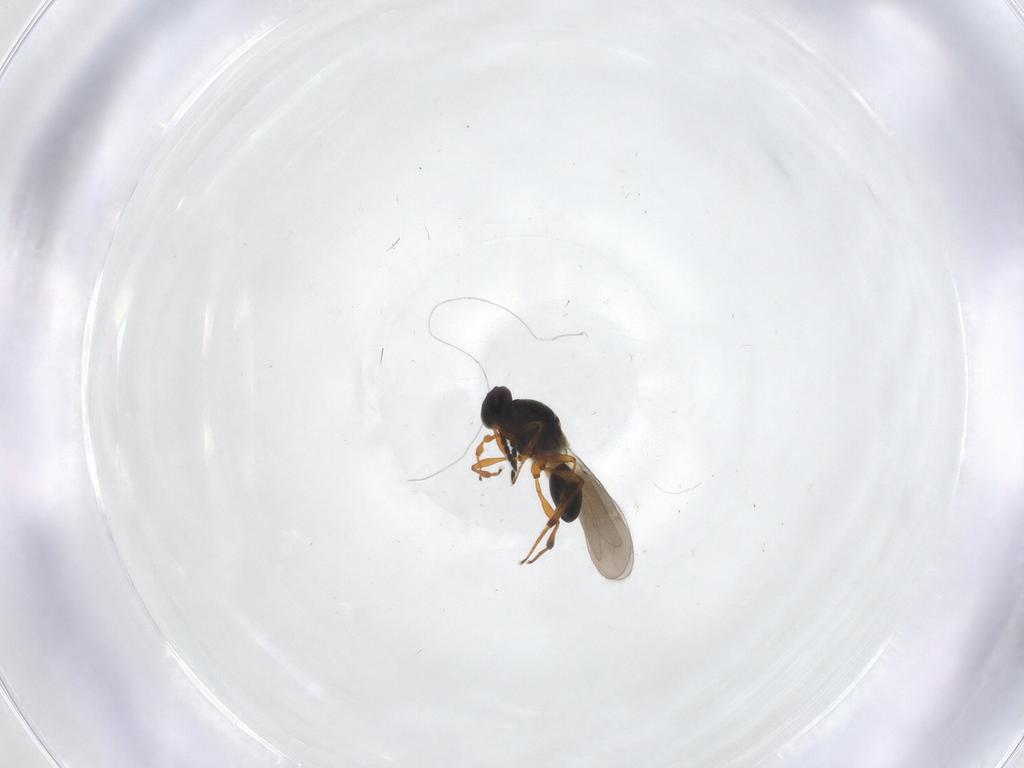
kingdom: Animalia
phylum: Arthropoda
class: Insecta
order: Hymenoptera
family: Platygastridae
